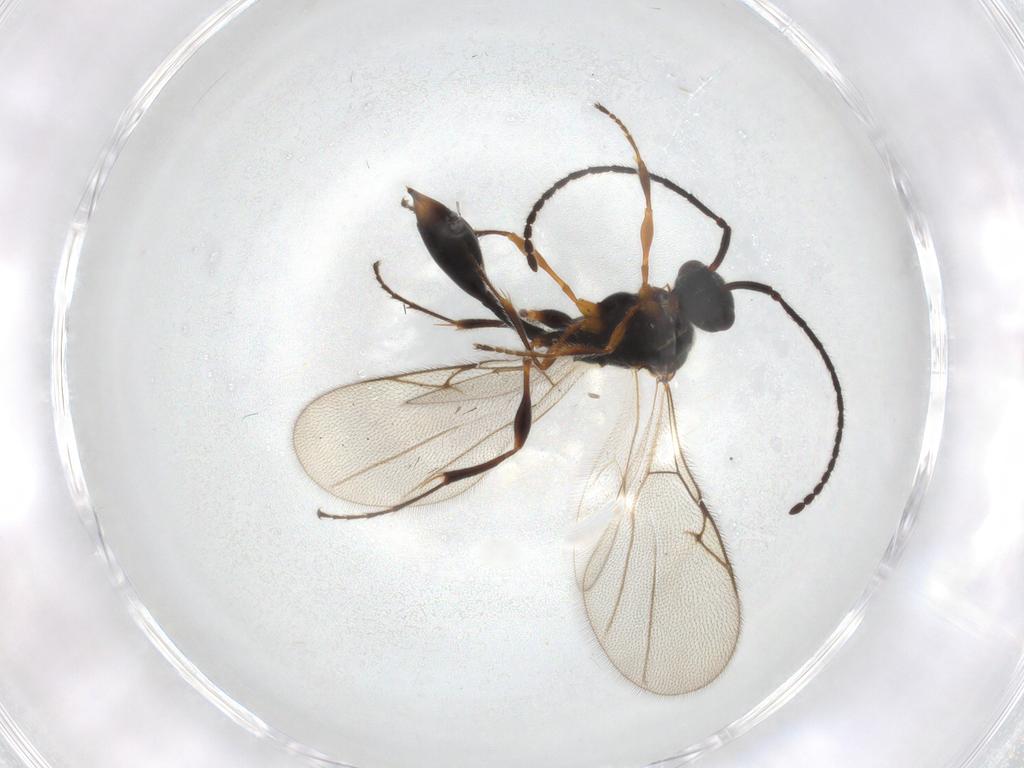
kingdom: Animalia
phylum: Arthropoda
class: Insecta
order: Hymenoptera
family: Diapriidae
